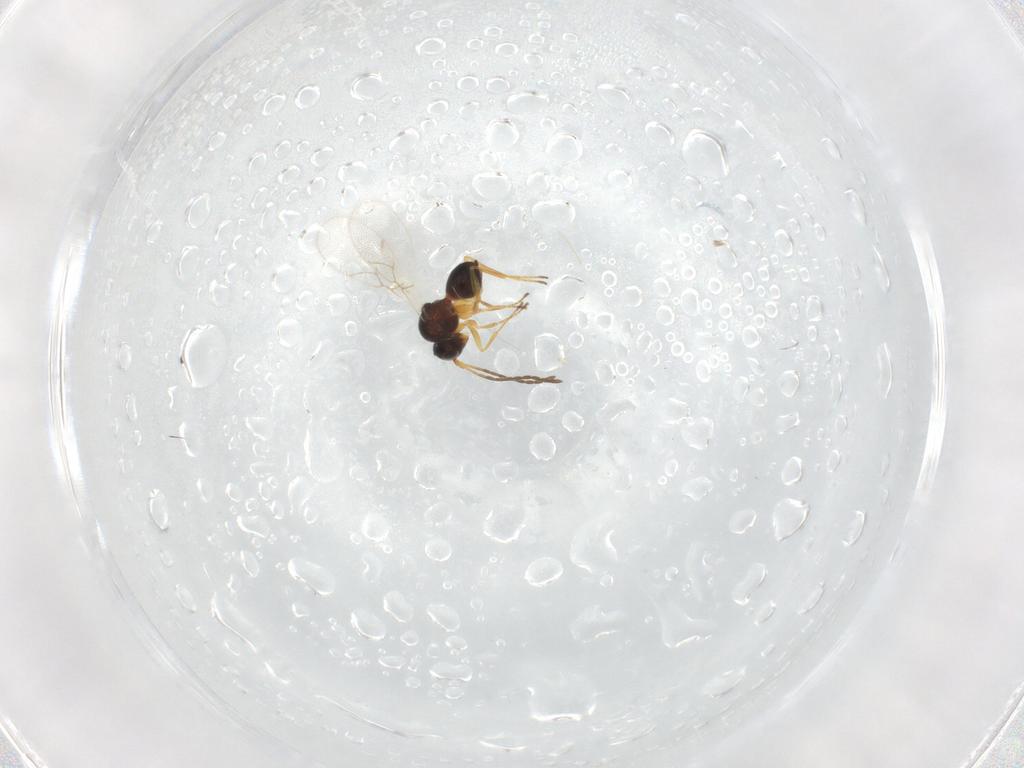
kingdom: Animalia
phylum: Arthropoda
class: Insecta
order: Hymenoptera
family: Figitidae
